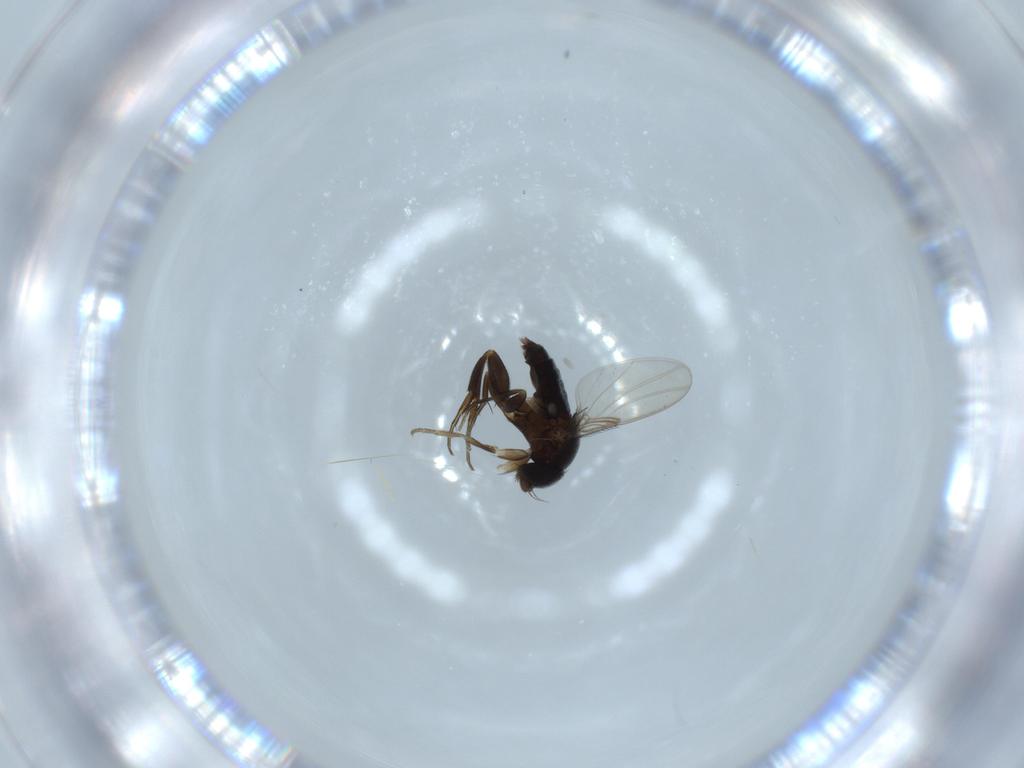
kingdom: Animalia
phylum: Arthropoda
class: Insecta
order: Diptera
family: Phoridae
